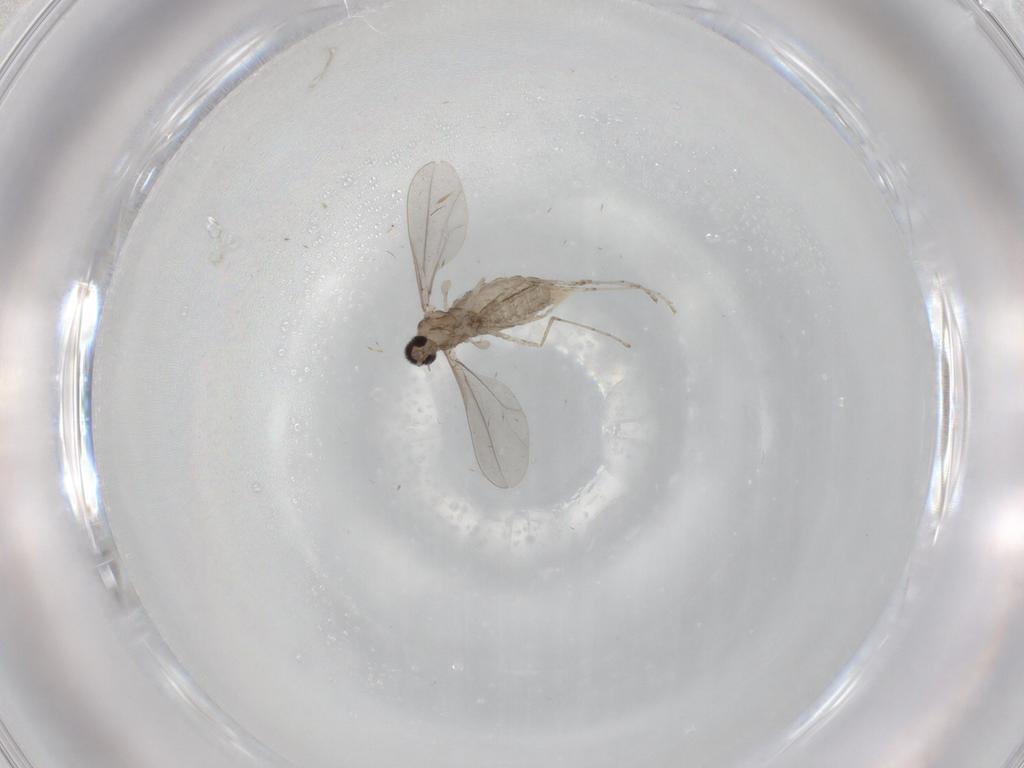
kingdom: Animalia
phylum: Arthropoda
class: Insecta
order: Diptera
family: Cecidomyiidae
